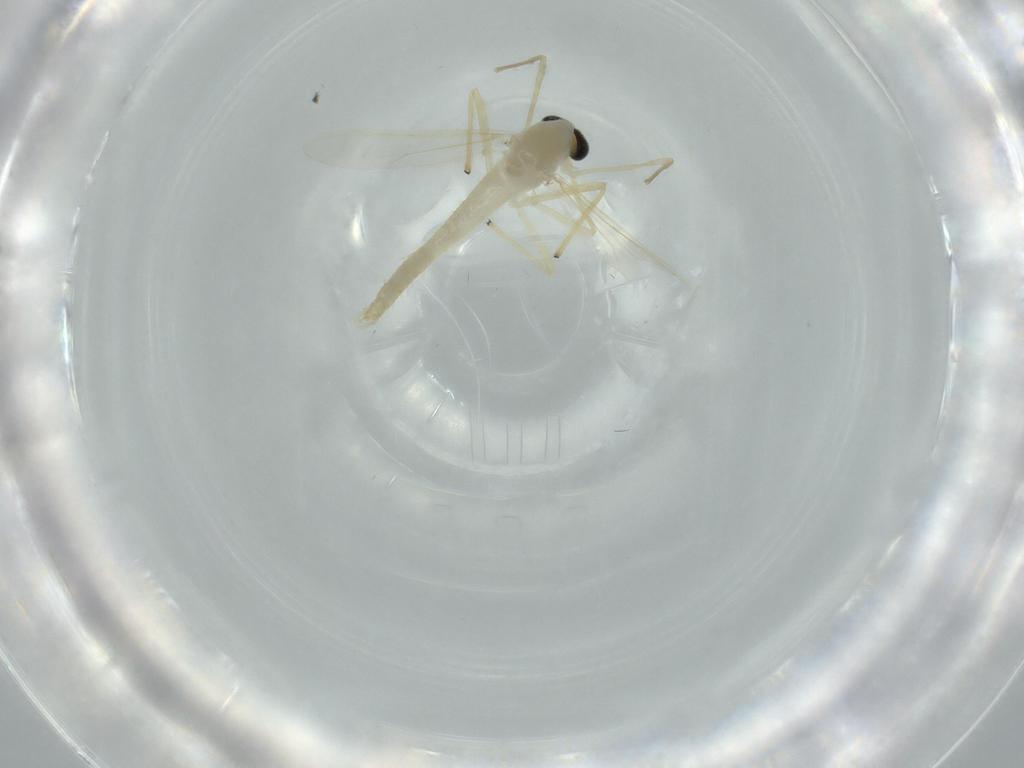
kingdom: Animalia
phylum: Arthropoda
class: Insecta
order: Diptera
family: Chironomidae
